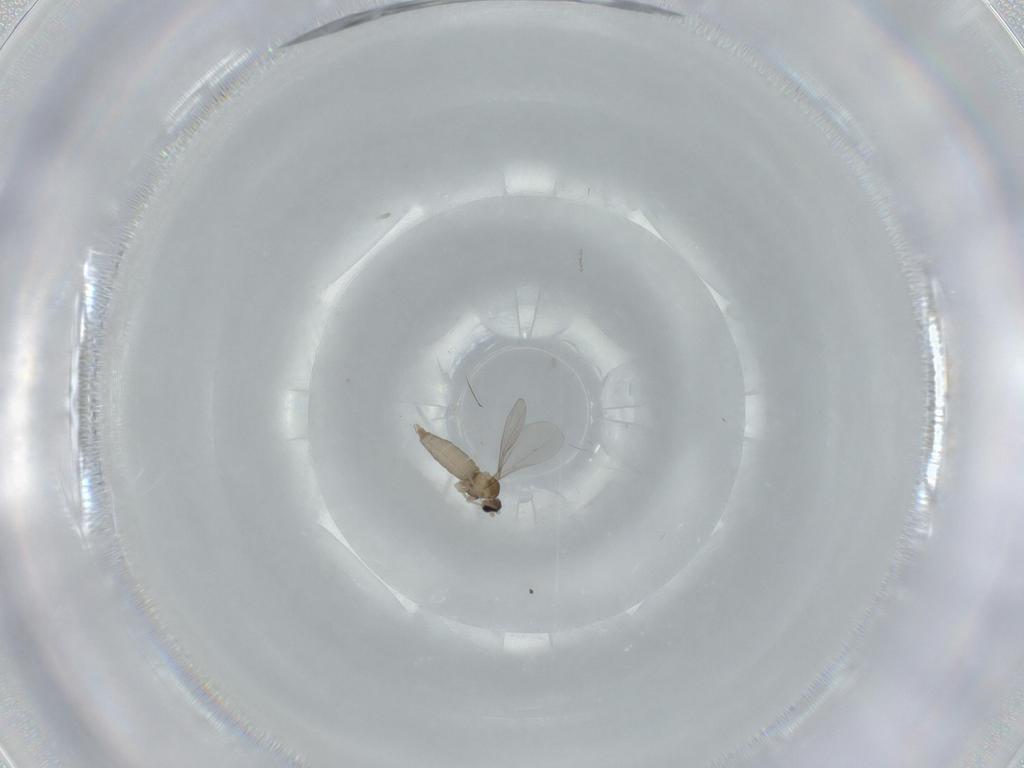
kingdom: Animalia
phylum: Arthropoda
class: Insecta
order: Diptera
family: Cecidomyiidae
